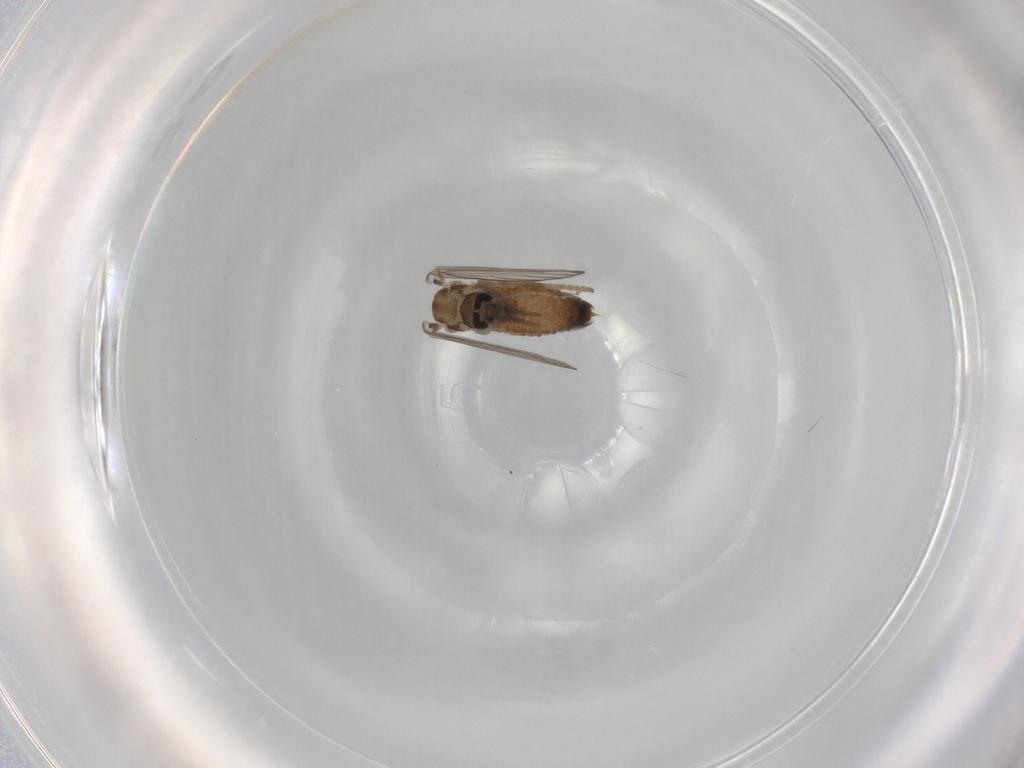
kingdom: Animalia
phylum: Arthropoda
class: Insecta
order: Diptera
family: Psychodidae
